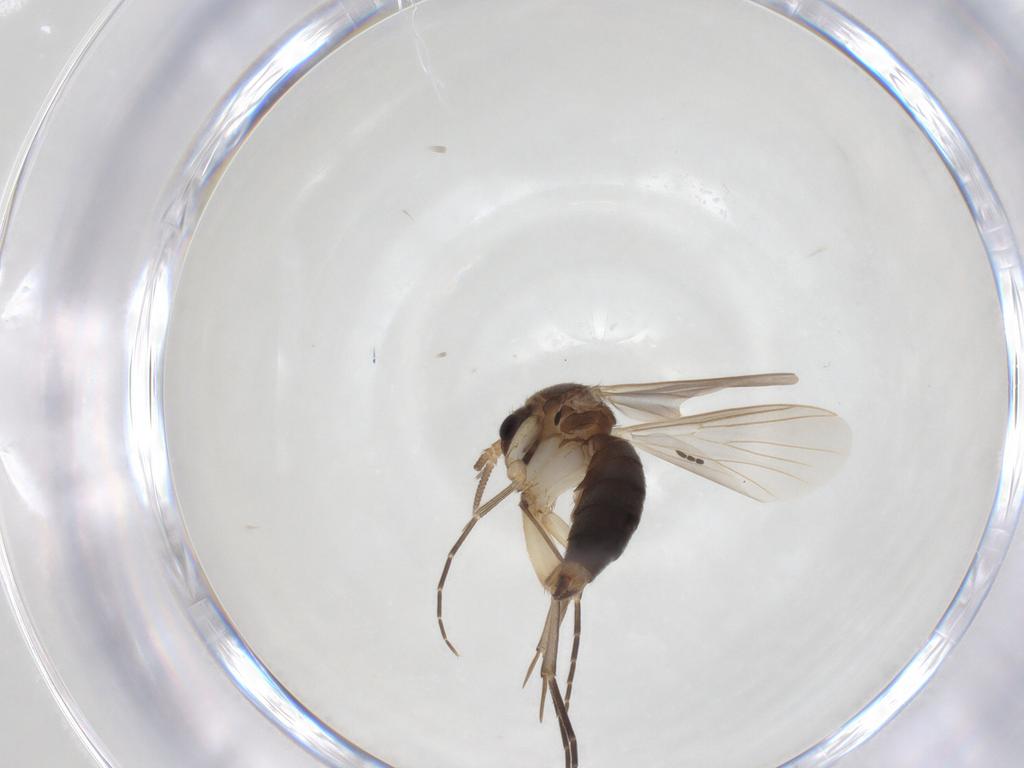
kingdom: Animalia
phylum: Arthropoda
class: Insecta
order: Diptera
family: Mycetophilidae
